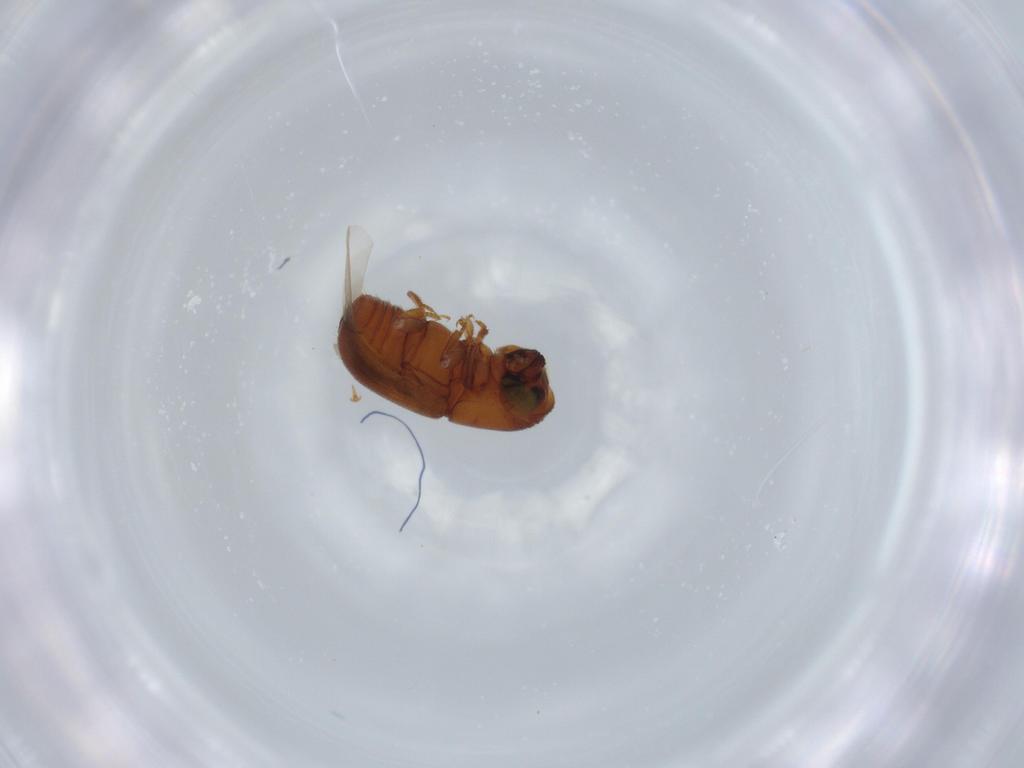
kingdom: Animalia
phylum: Arthropoda
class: Insecta
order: Coleoptera
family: Curculionidae
